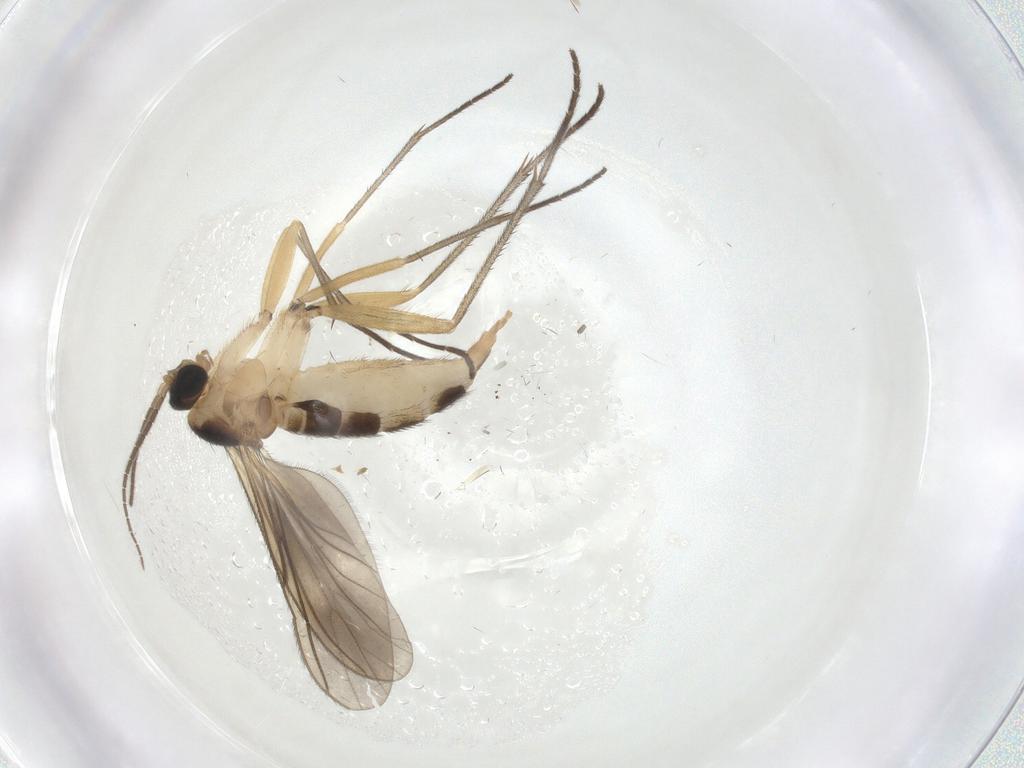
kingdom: Animalia
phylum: Arthropoda
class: Insecta
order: Diptera
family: Sciaridae
